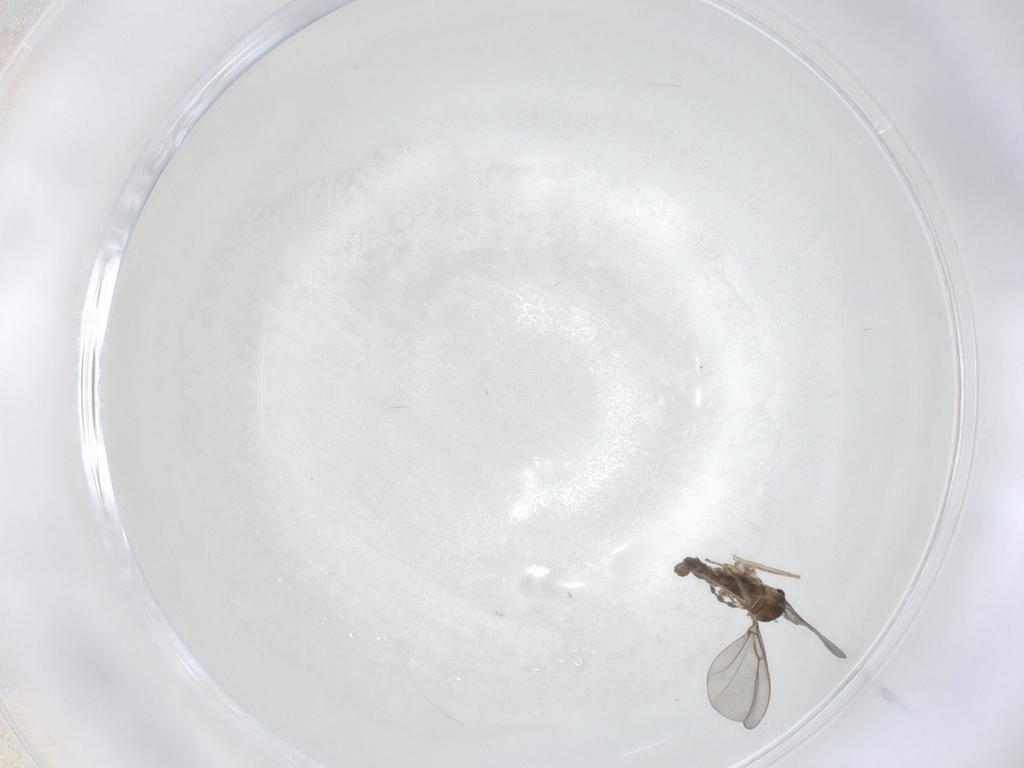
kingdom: Animalia
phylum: Arthropoda
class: Insecta
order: Diptera
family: Cecidomyiidae
